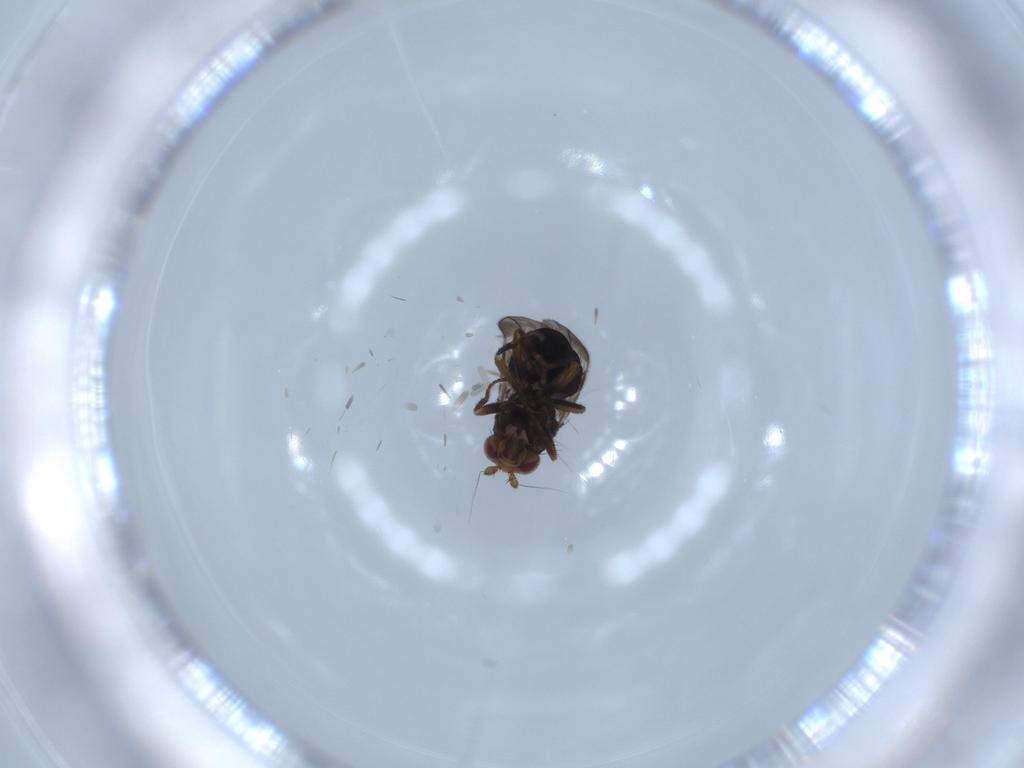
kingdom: Animalia
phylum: Arthropoda
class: Insecta
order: Diptera
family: Sphaeroceridae
